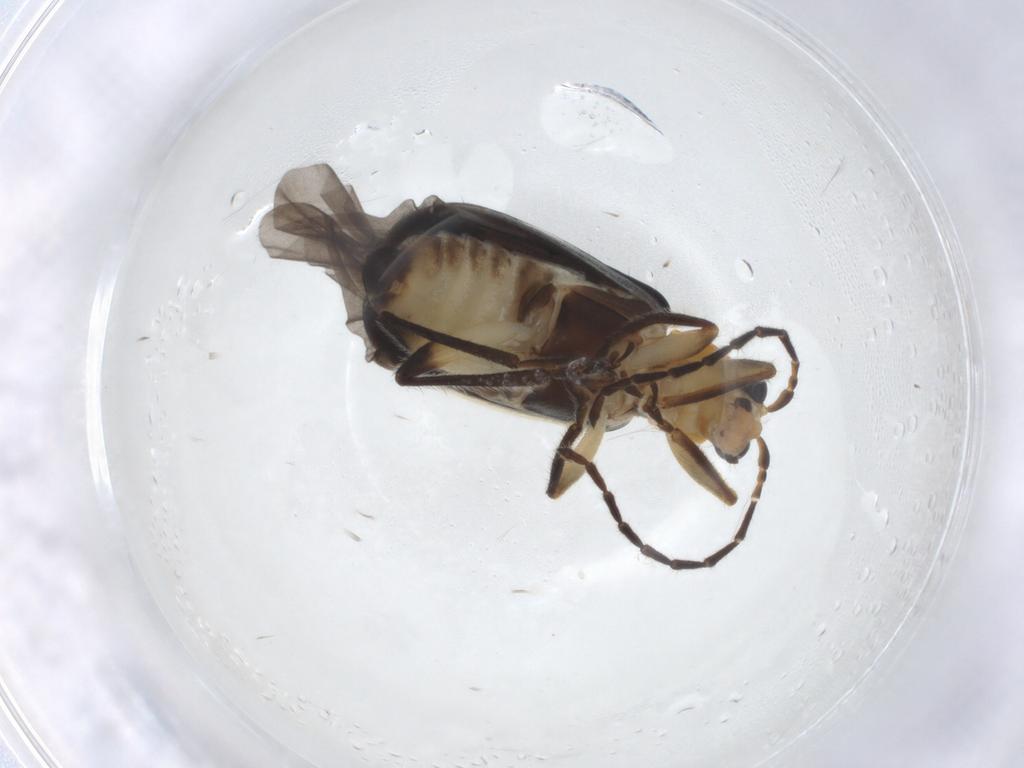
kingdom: Animalia
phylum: Arthropoda
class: Insecta
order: Coleoptera
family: Chrysomelidae
